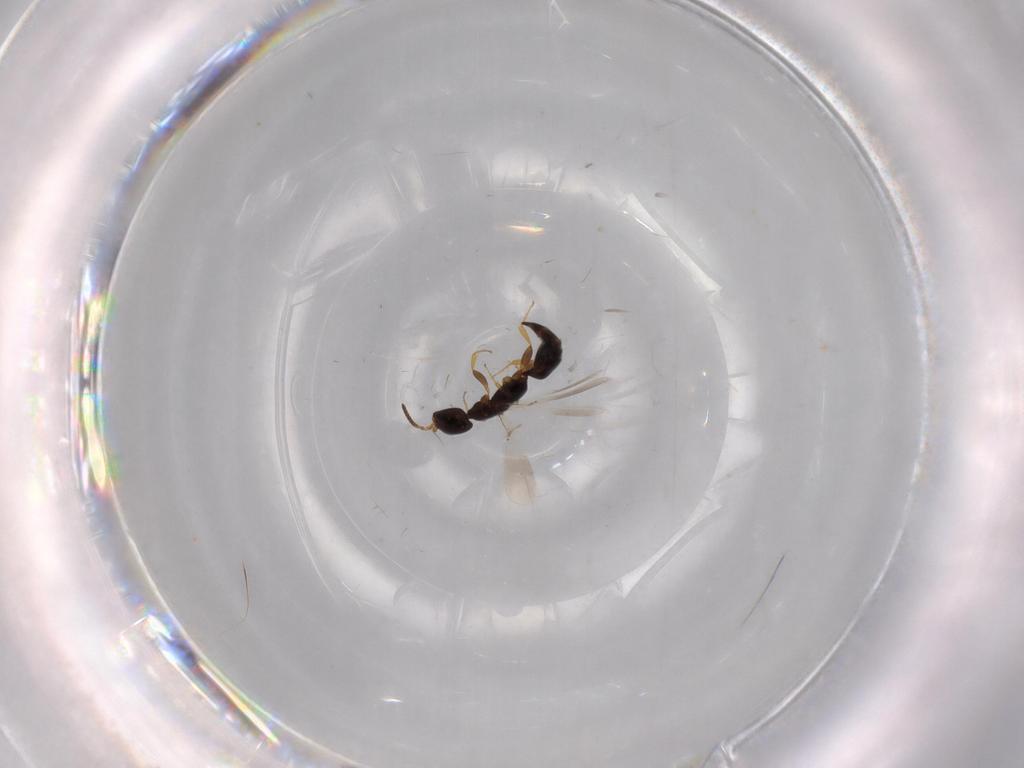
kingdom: Animalia
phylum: Arthropoda
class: Insecta
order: Hymenoptera
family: Bethylidae
